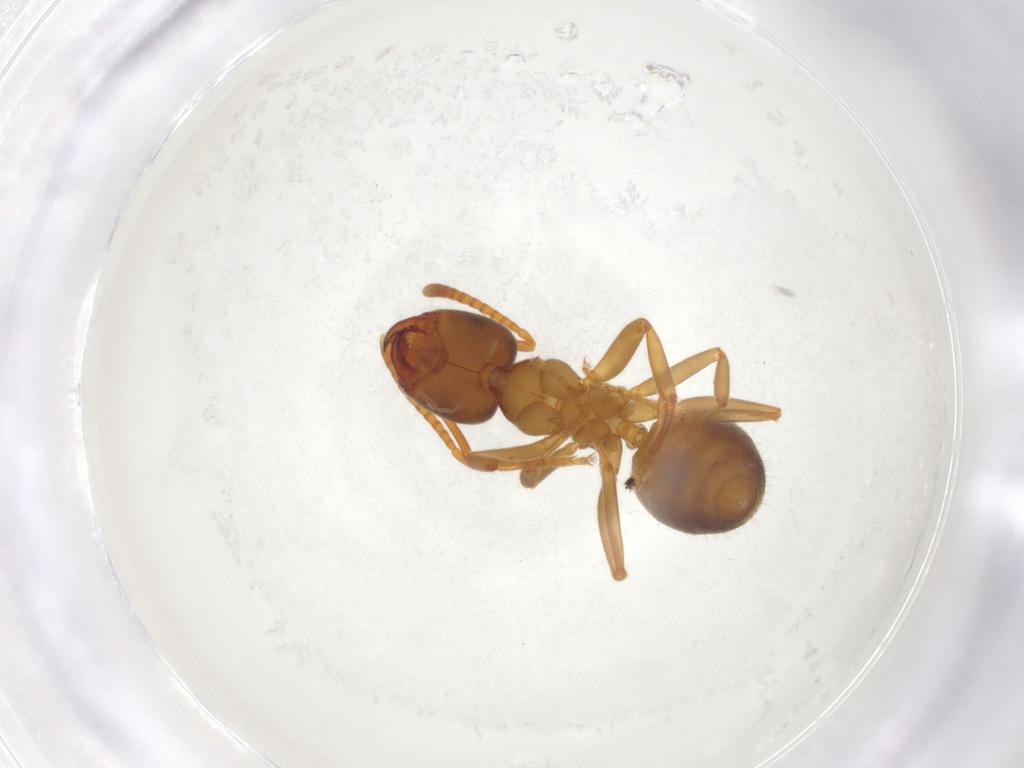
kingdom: Animalia
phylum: Arthropoda
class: Insecta
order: Hymenoptera
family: Formicidae
